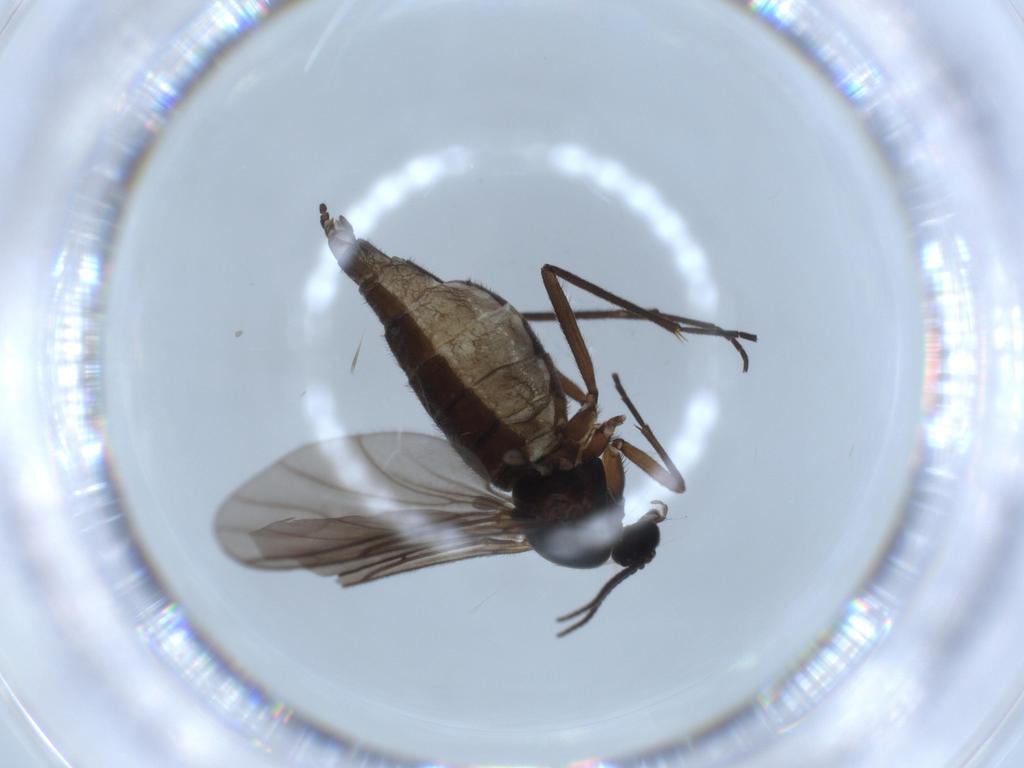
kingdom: Animalia
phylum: Arthropoda
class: Insecta
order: Diptera
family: Sciaridae
